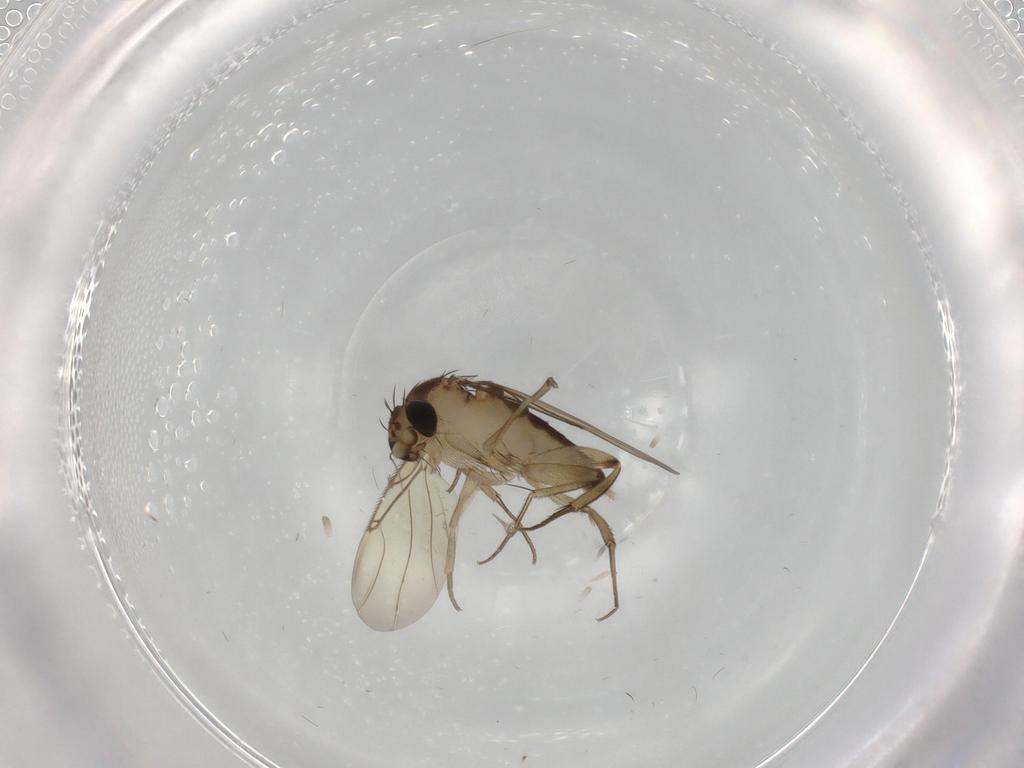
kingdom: Animalia
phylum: Arthropoda
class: Insecta
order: Diptera
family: Phoridae
